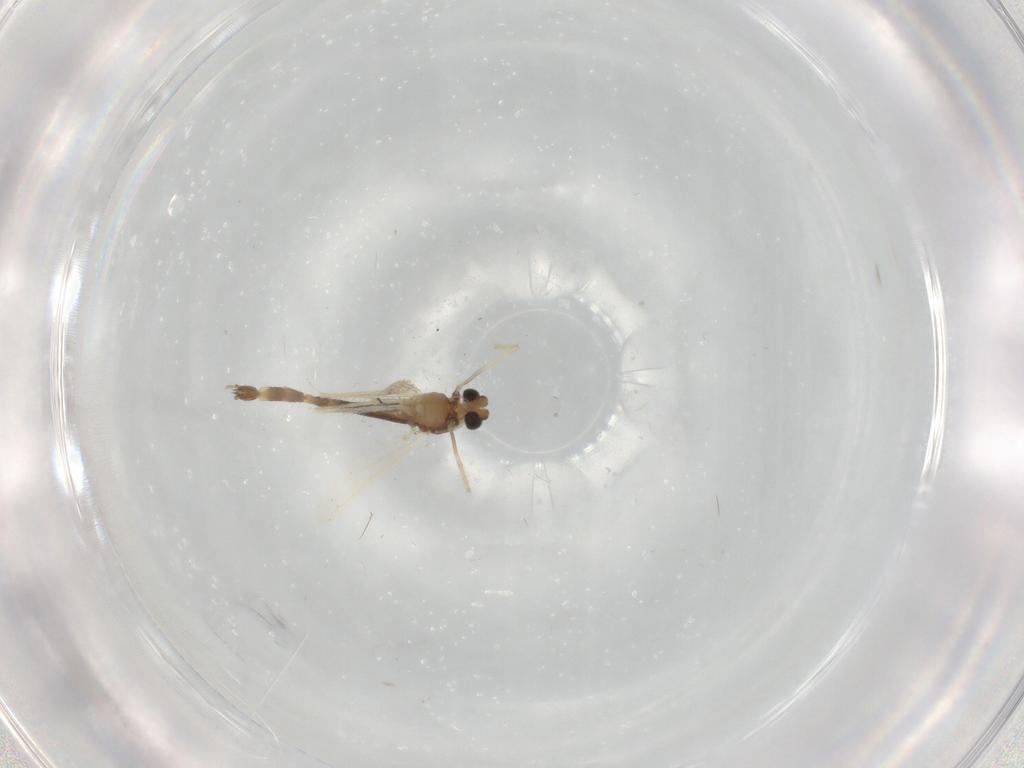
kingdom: Animalia
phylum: Arthropoda
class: Insecta
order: Diptera
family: Chironomidae
